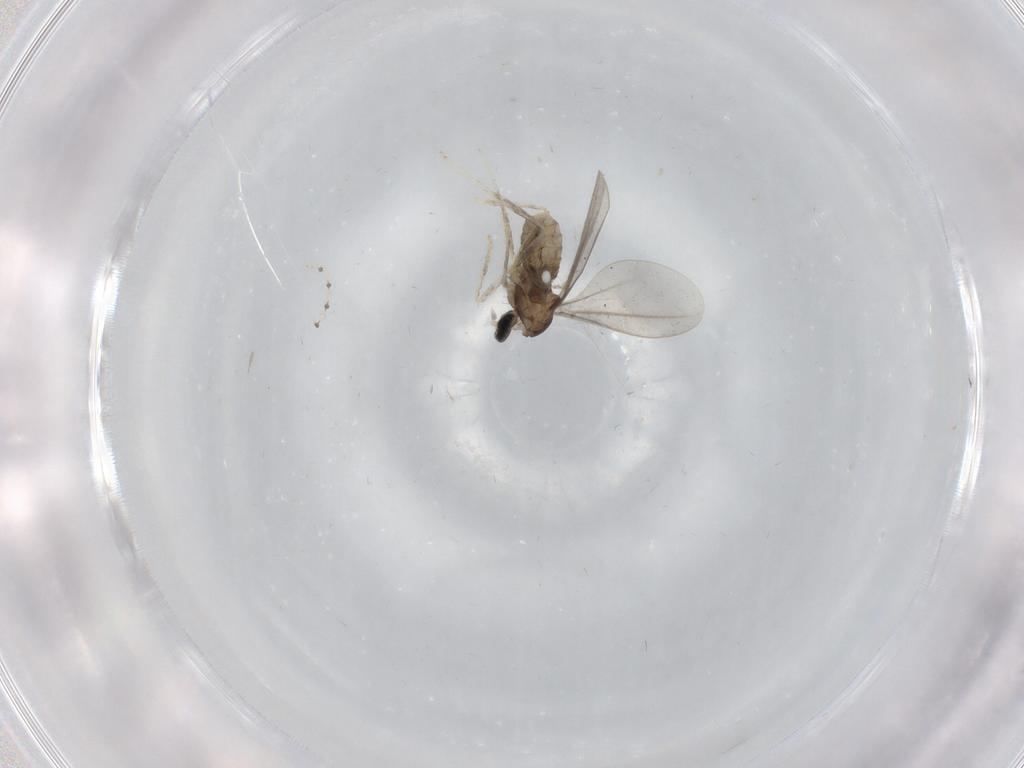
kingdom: Animalia
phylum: Arthropoda
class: Insecta
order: Diptera
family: Cecidomyiidae
